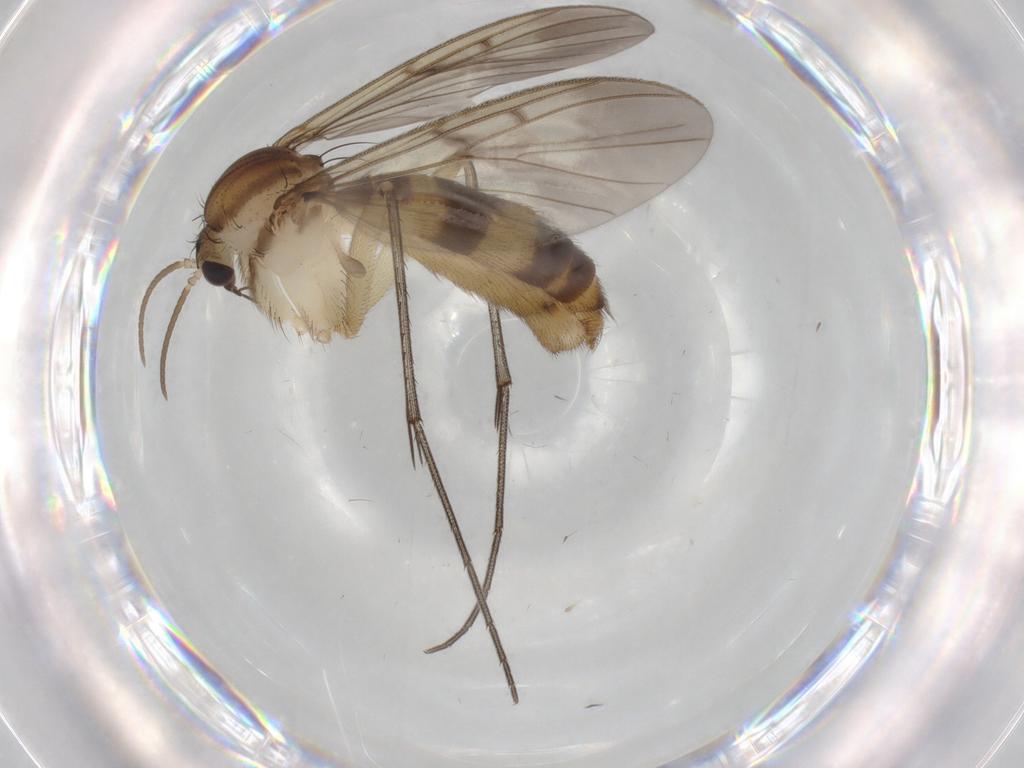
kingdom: Animalia
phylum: Arthropoda
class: Insecta
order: Diptera
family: Mycetophilidae
